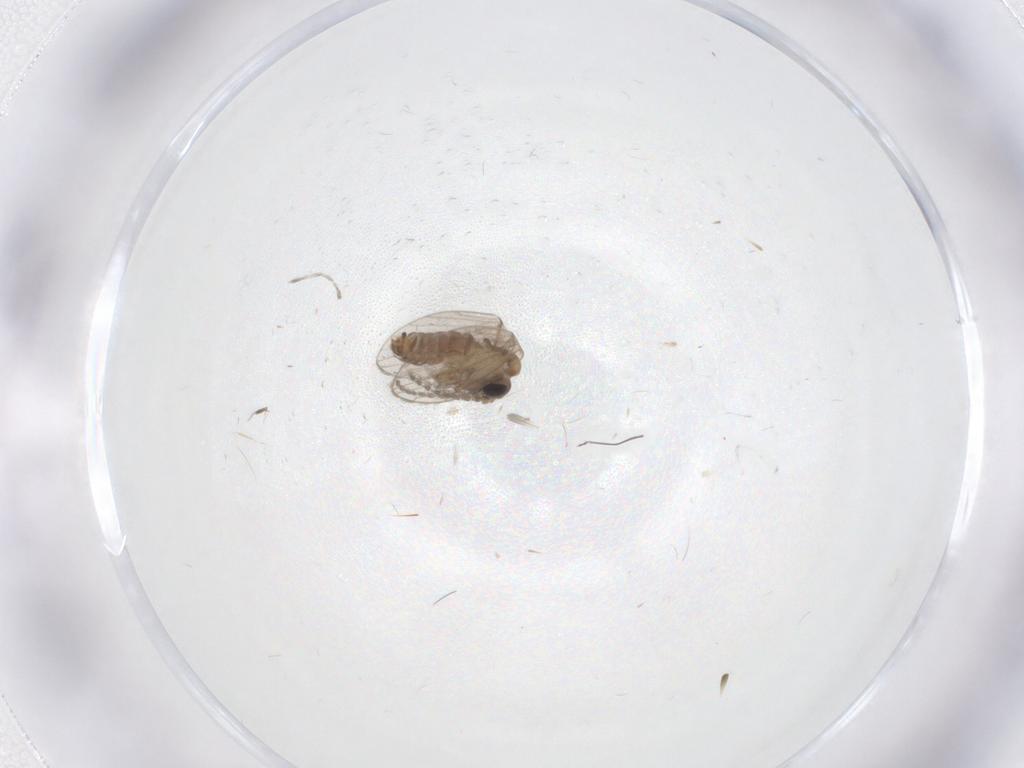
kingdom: Animalia
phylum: Arthropoda
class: Insecta
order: Diptera
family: Psychodidae
